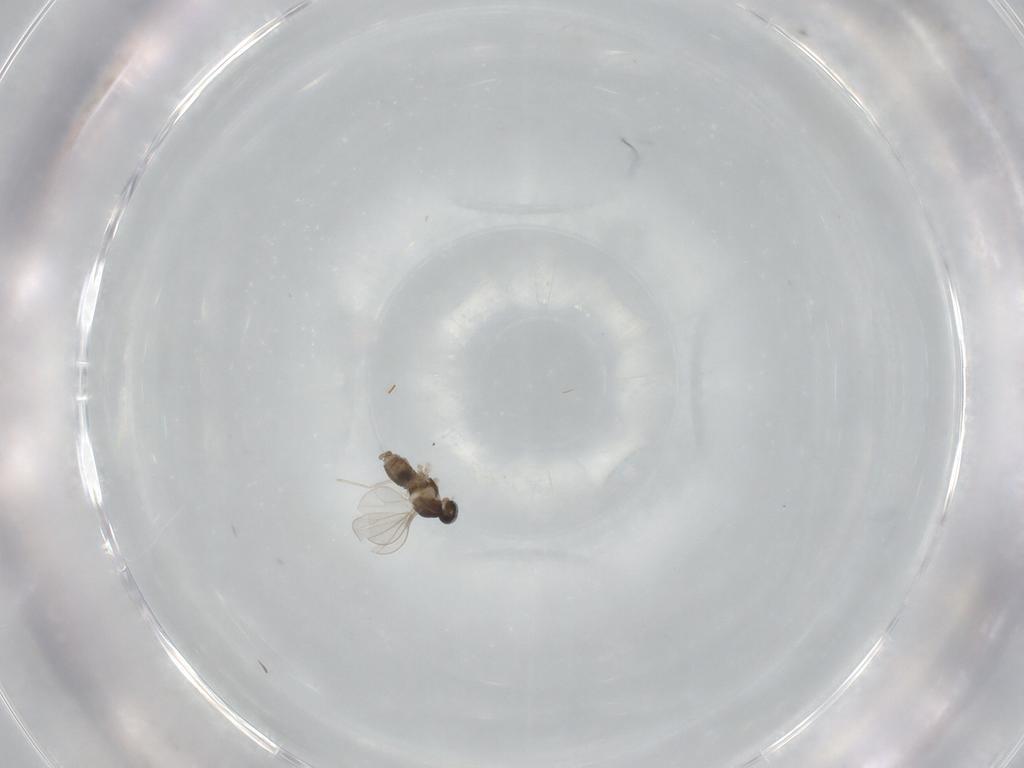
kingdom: Animalia
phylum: Arthropoda
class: Insecta
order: Diptera
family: Cecidomyiidae
